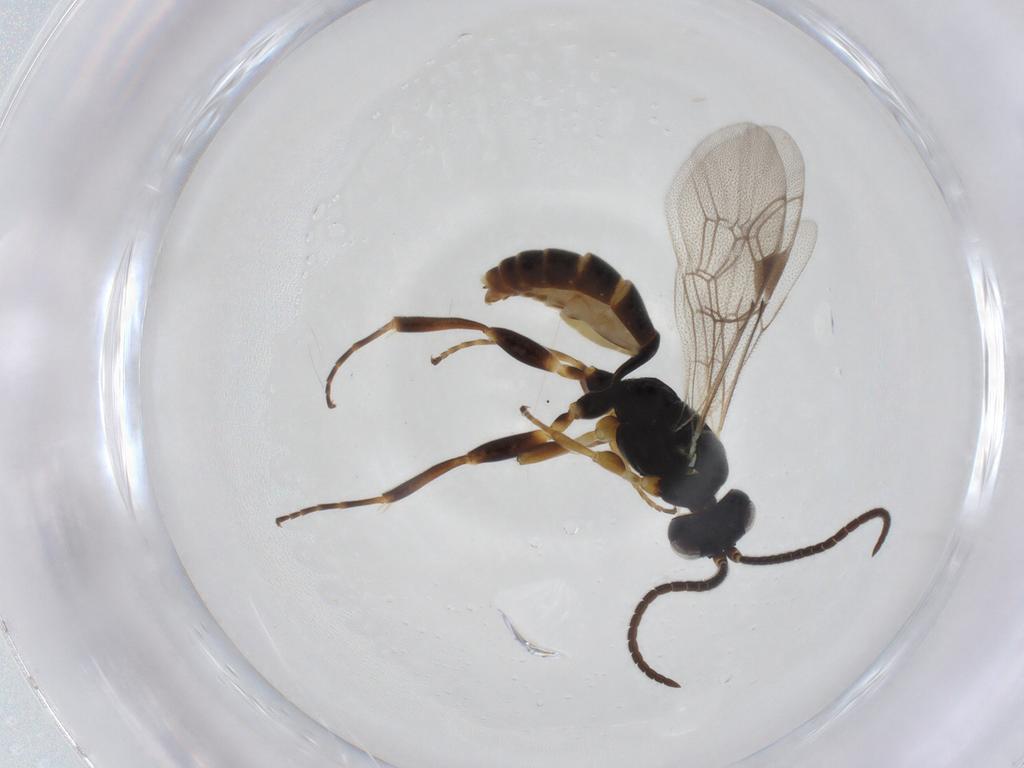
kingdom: Animalia
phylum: Arthropoda
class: Insecta
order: Hymenoptera
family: Ichneumonidae
